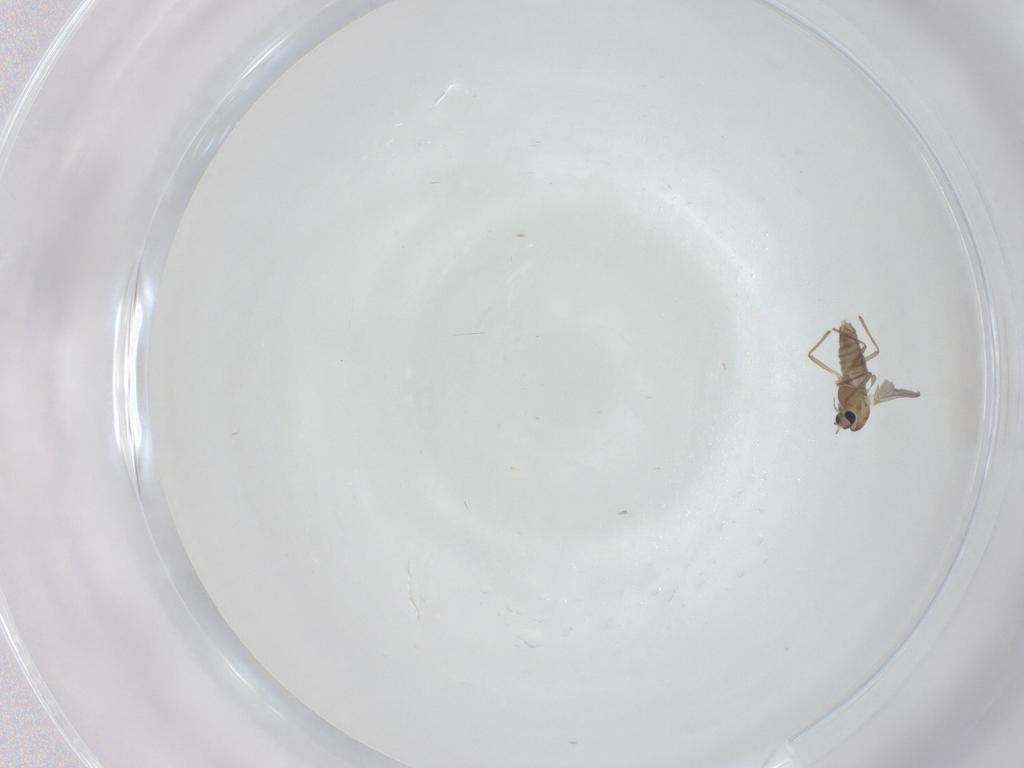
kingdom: Animalia
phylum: Arthropoda
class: Insecta
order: Diptera
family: Chironomidae
